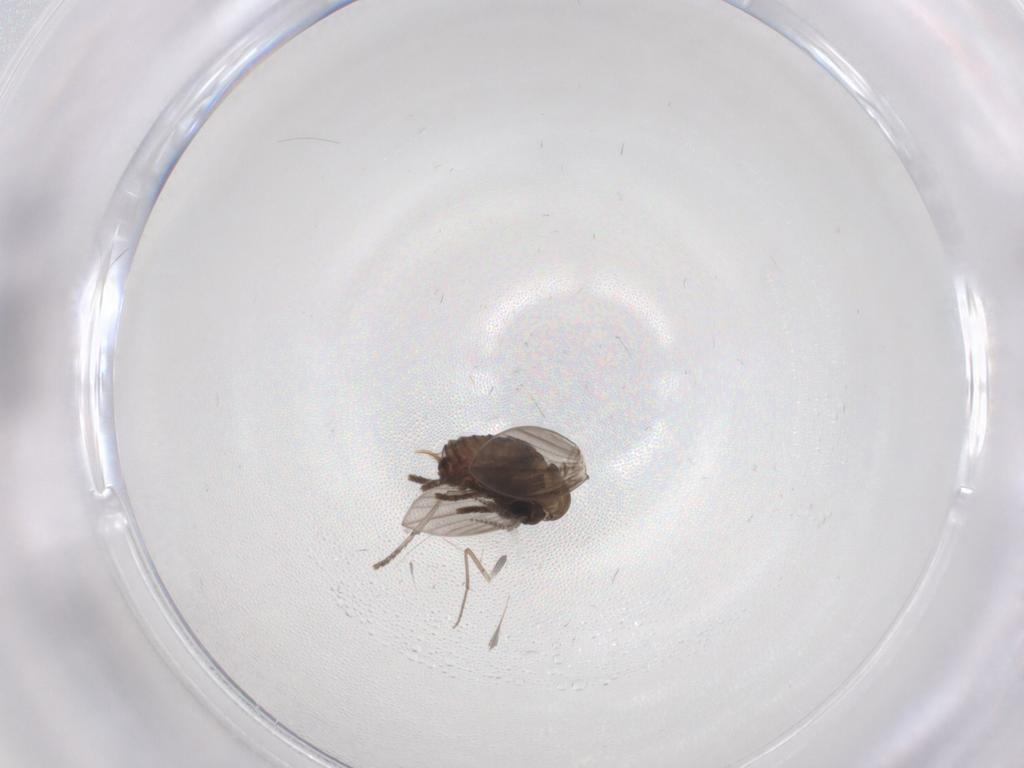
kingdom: Animalia
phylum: Arthropoda
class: Insecta
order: Diptera
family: Psychodidae
